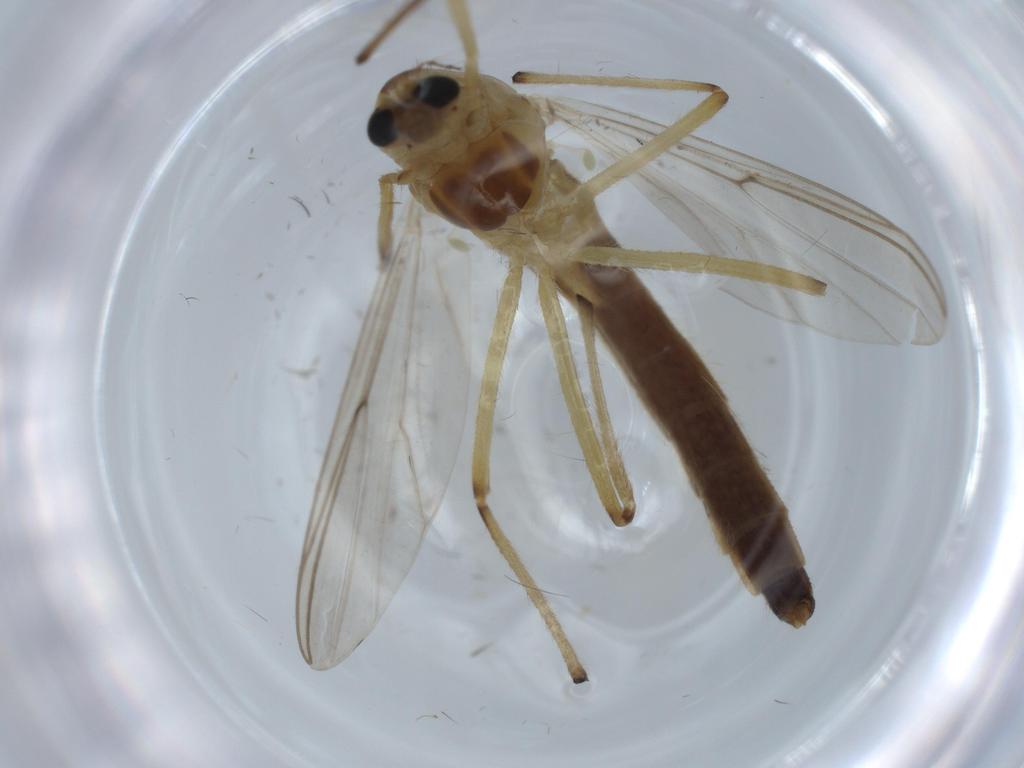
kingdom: Animalia
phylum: Arthropoda
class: Insecta
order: Diptera
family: Chironomidae
